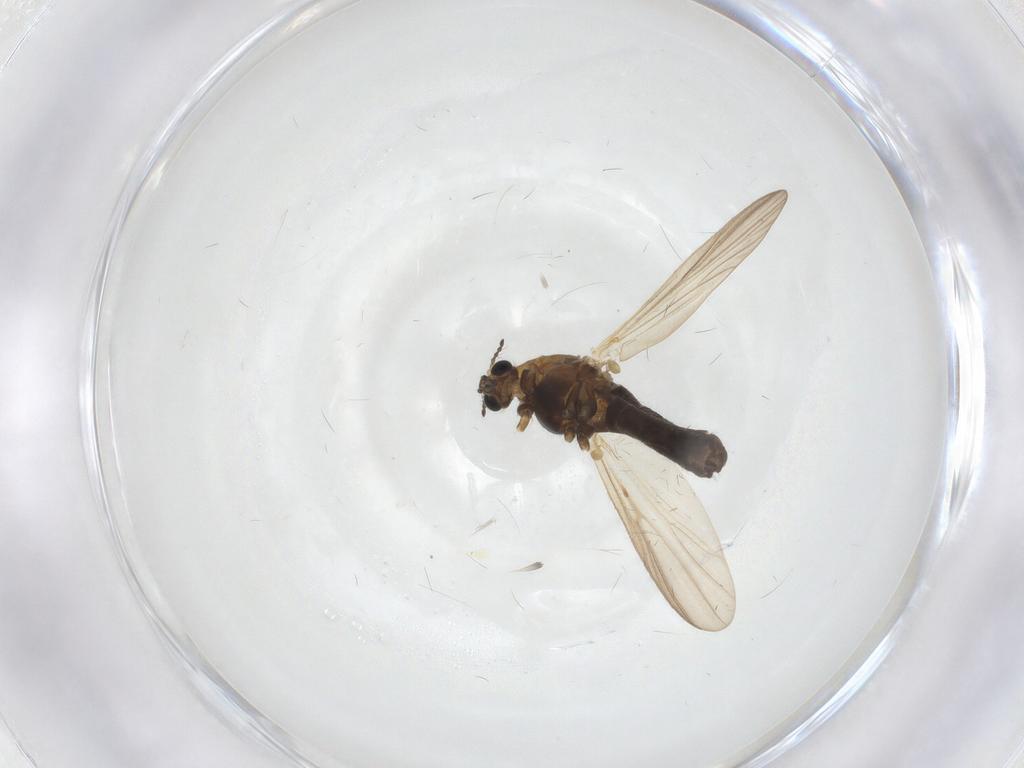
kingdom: Animalia
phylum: Arthropoda
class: Insecta
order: Diptera
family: Chironomidae
